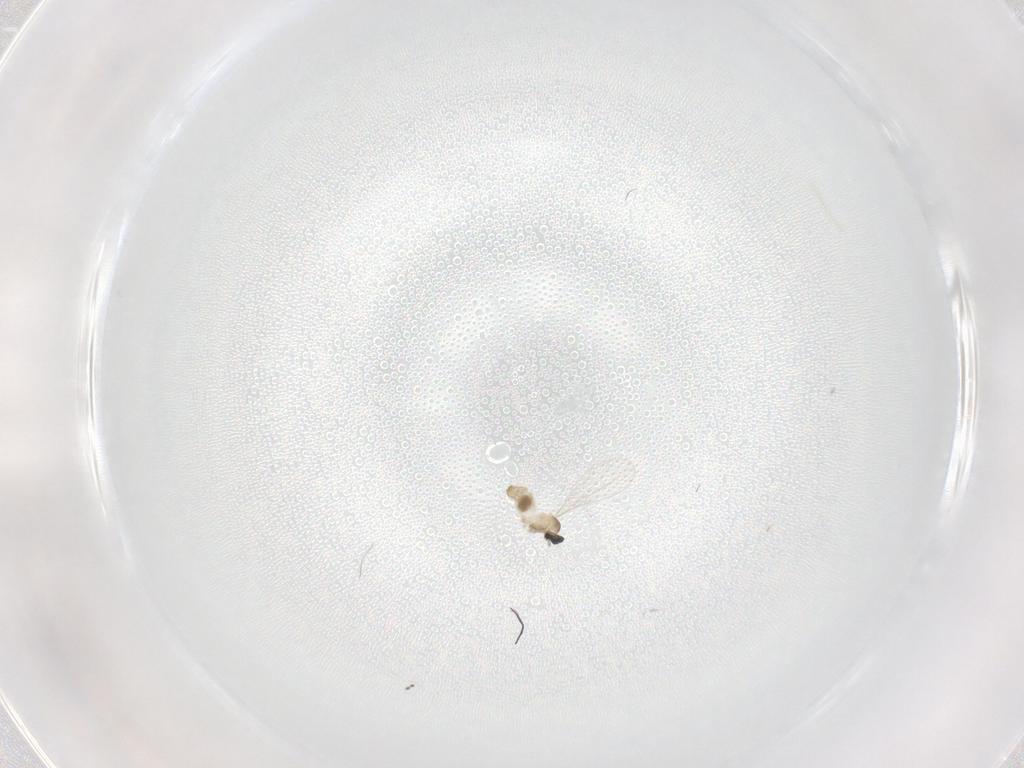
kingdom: Animalia
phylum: Arthropoda
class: Insecta
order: Diptera
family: Cecidomyiidae
